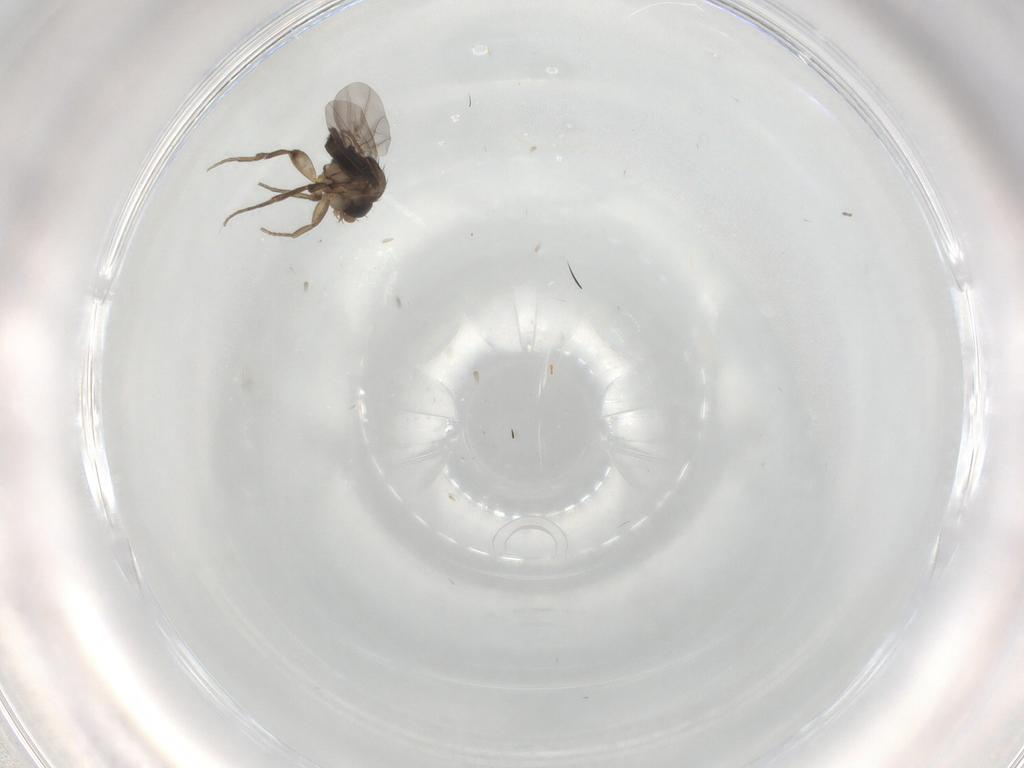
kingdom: Animalia
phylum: Arthropoda
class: Insecta
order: Diptera
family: Phoridae
